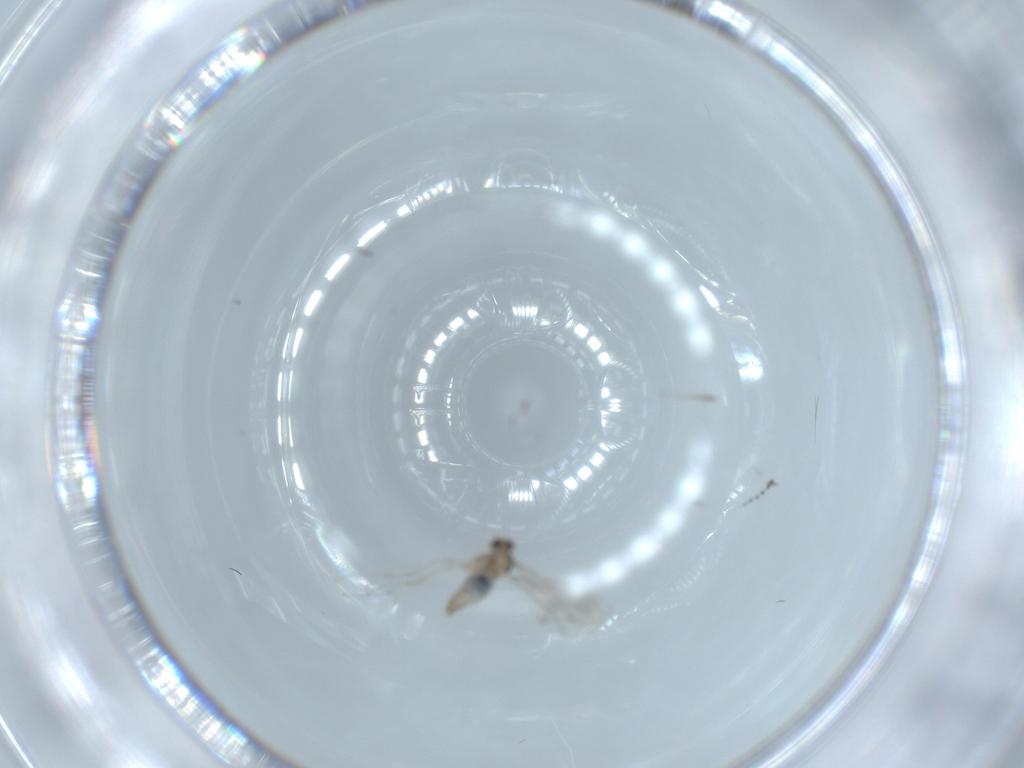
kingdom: Animalia
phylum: Arthropoda
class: Insecta
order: Diptera
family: Cecidomyiidae
